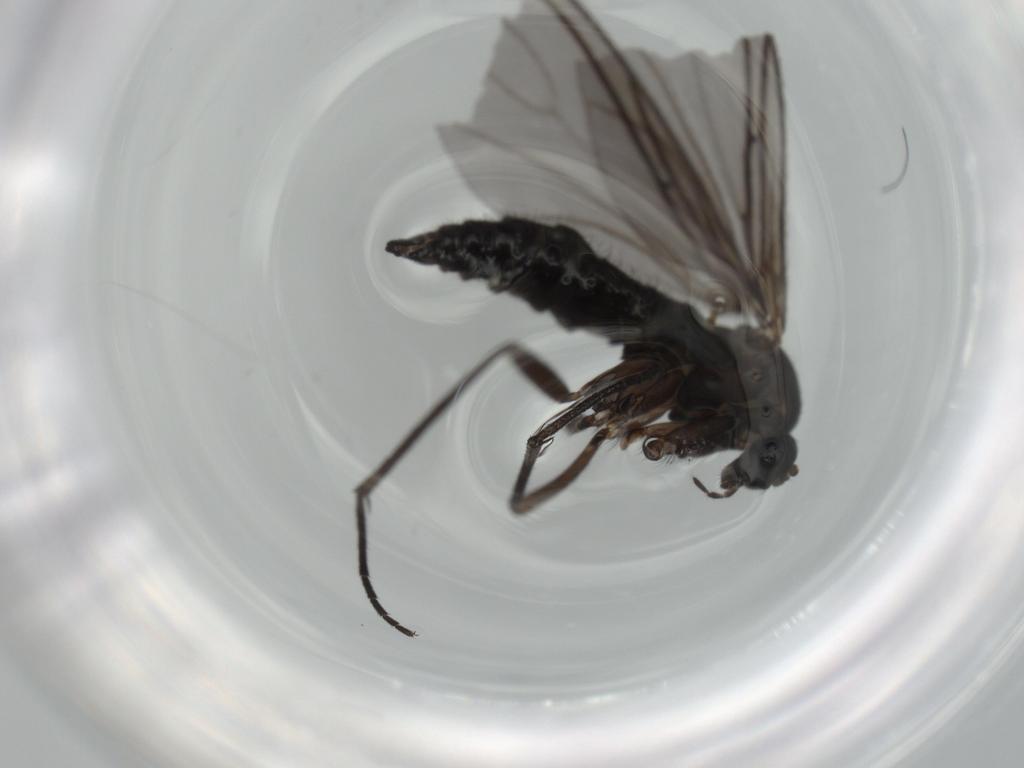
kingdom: Animalia
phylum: Arthropoda
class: Insecta
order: Diptera
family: Sciaridae
